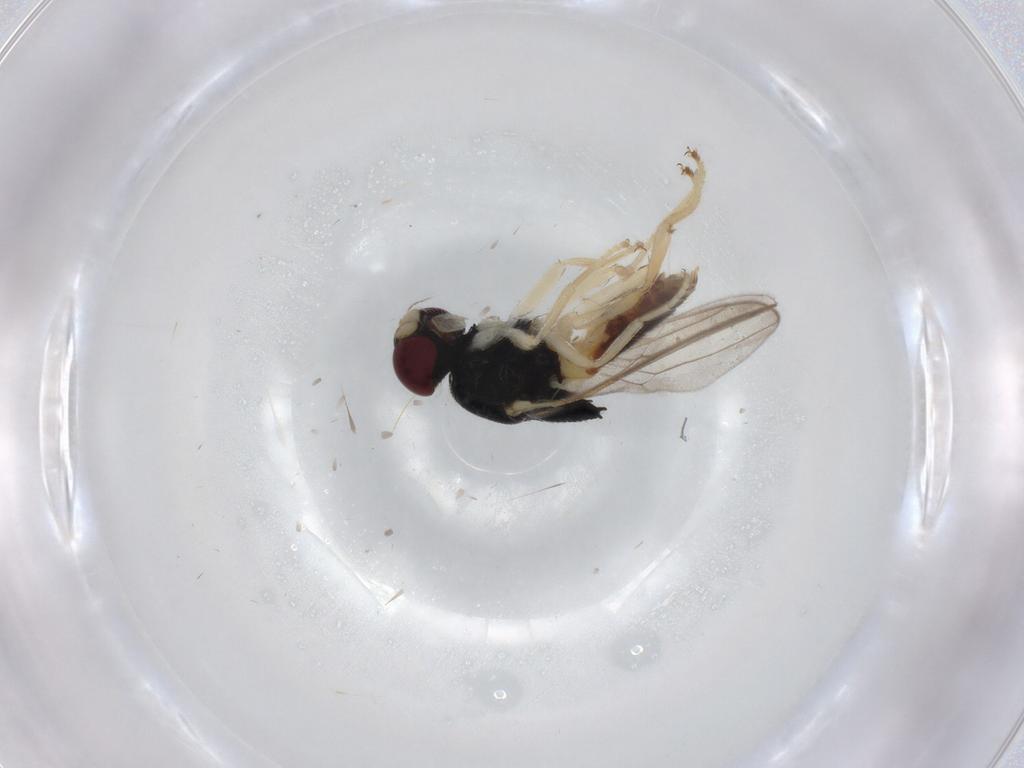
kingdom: Animalia
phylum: Arthropoda
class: Insecta
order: Diptera
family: Chloropidae
